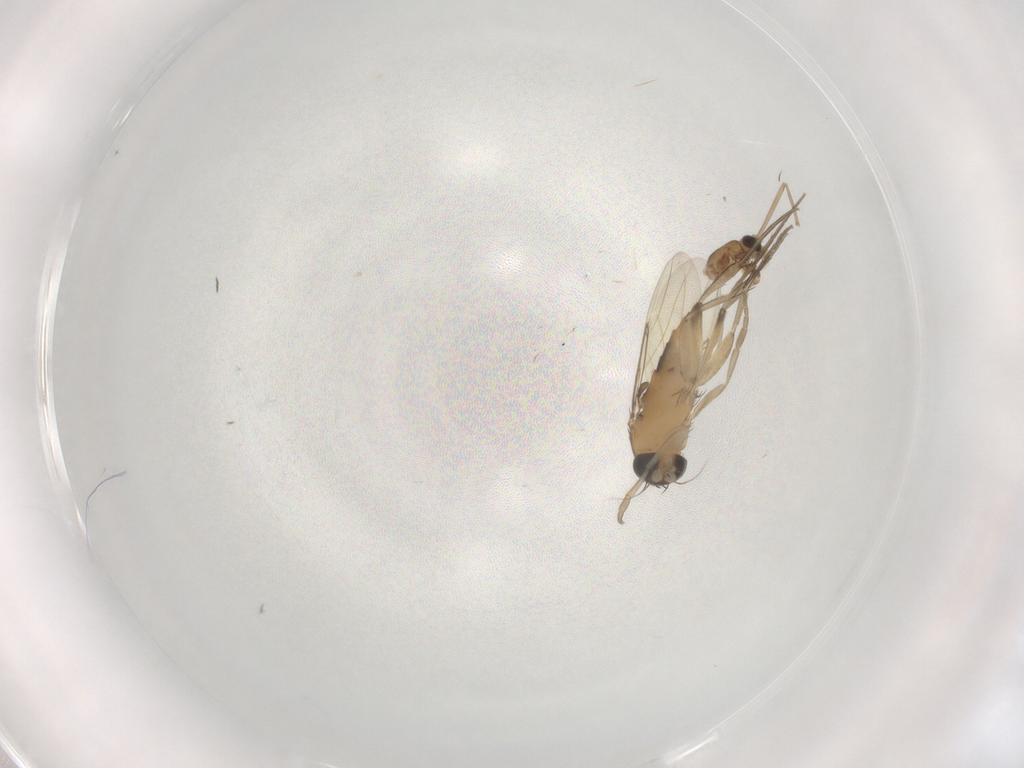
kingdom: Animalia
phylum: Arthropoda
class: Insecta
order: Diptera
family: Phoridae
